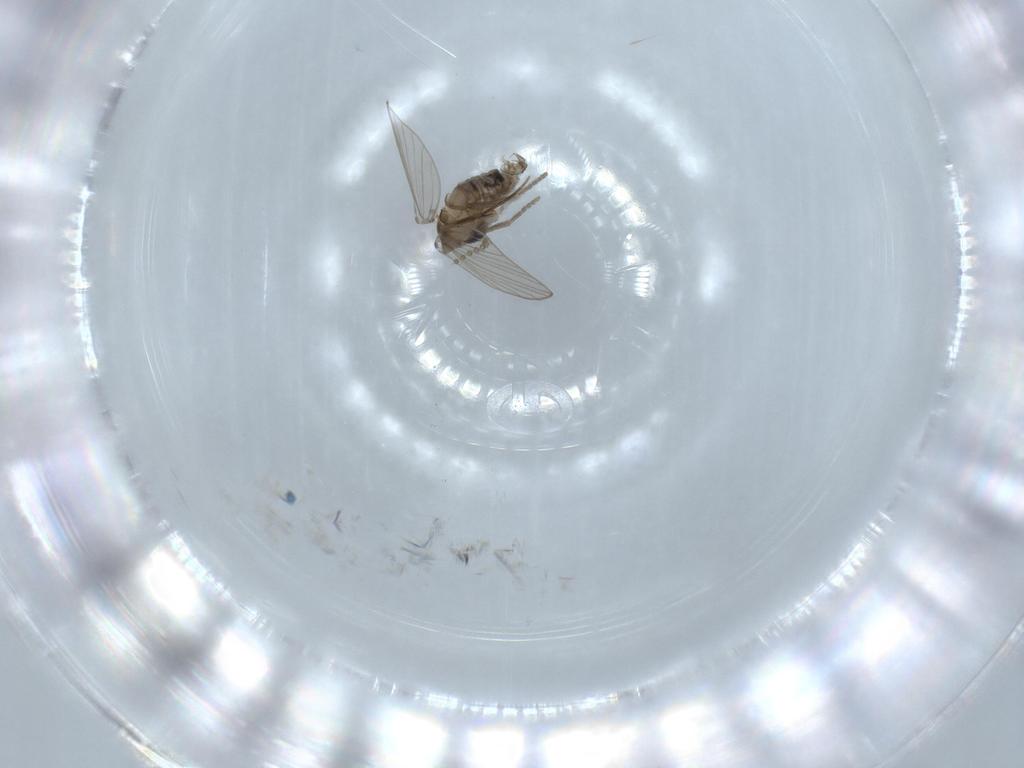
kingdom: Animalia
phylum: Arthropoda
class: Insecta
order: Diptera
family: Psychodidae
